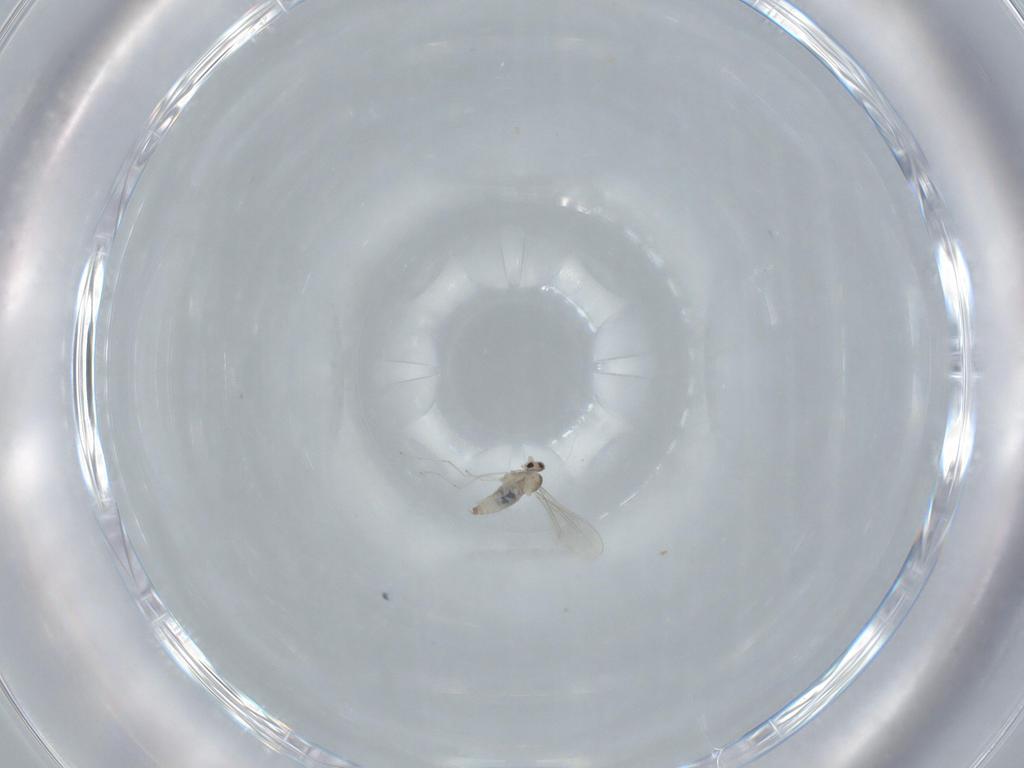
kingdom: Animalia
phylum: Arthropoda
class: Insecta
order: Diptera
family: Cecidomyiidae
